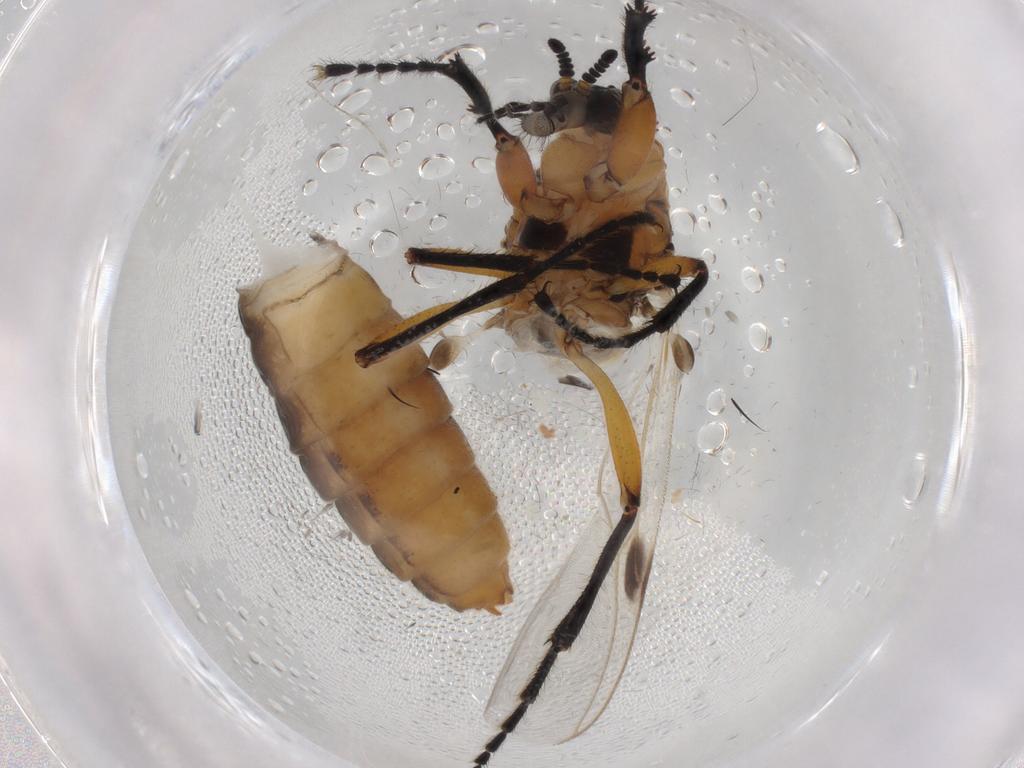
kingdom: Animalia
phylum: Arthropoda
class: Insecta
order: Diptera
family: Bibionidae
